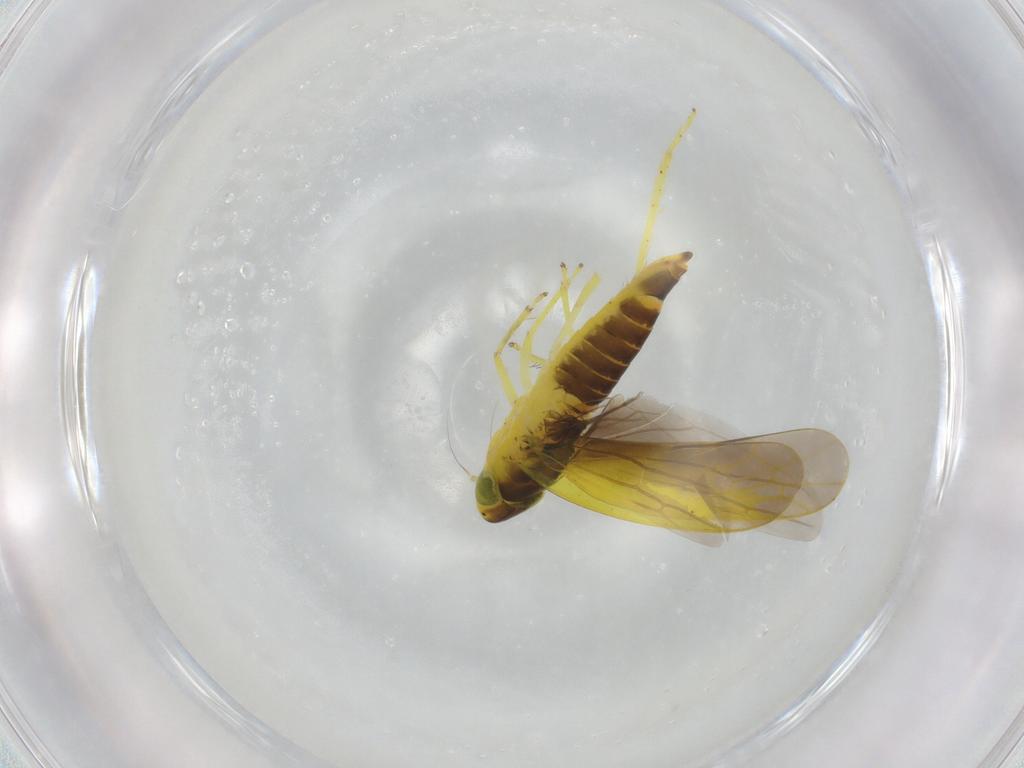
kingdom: Animalia
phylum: Arthropoda
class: Insecta
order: Hemiptera
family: Cicadellidae
